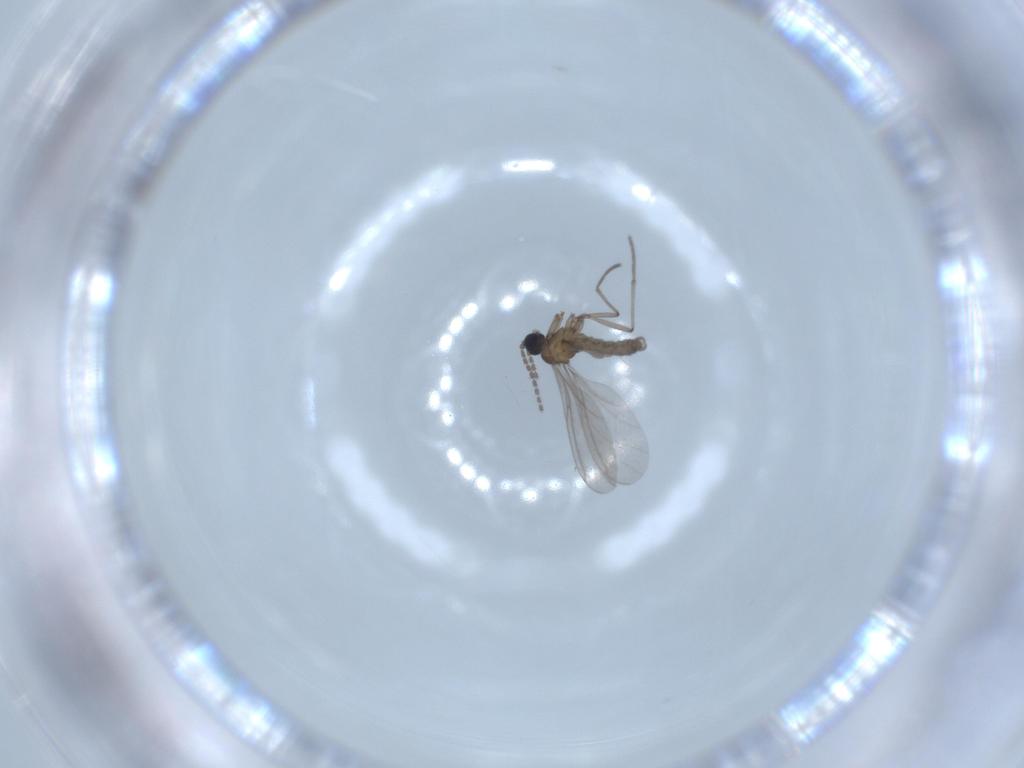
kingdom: Animalia
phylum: Arthropoda
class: Insecta
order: Diptera
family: Sciaridae
